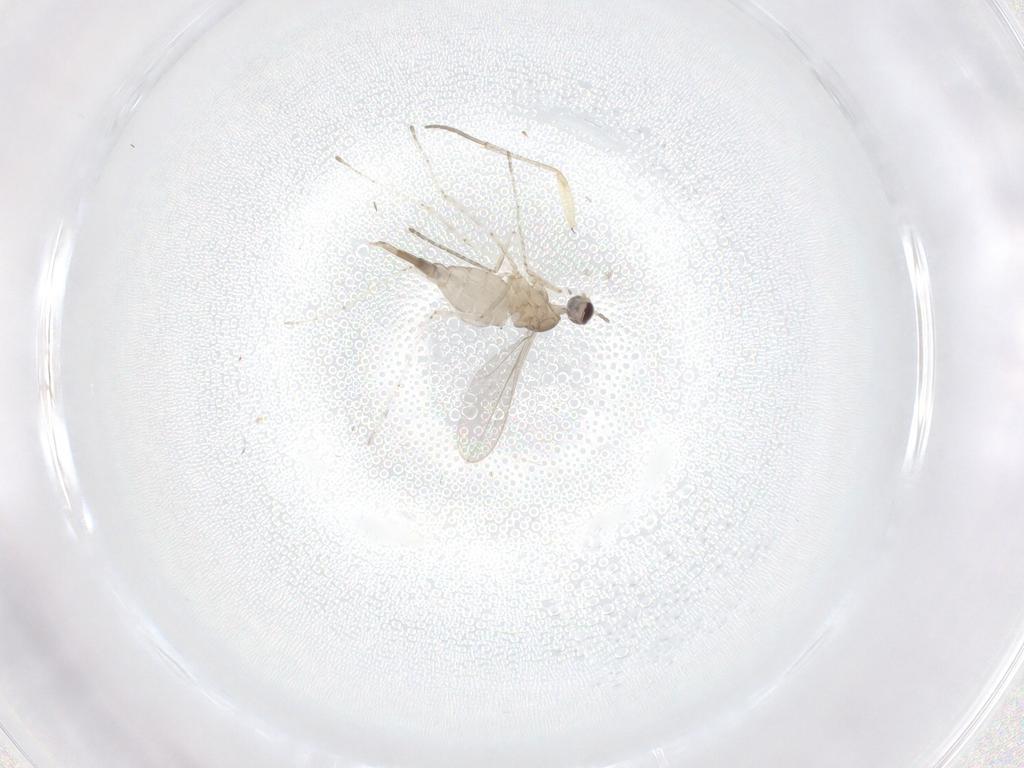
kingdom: Animalia
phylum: Arthropoda
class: Insecta
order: Diptera
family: Cecidomyiidae
